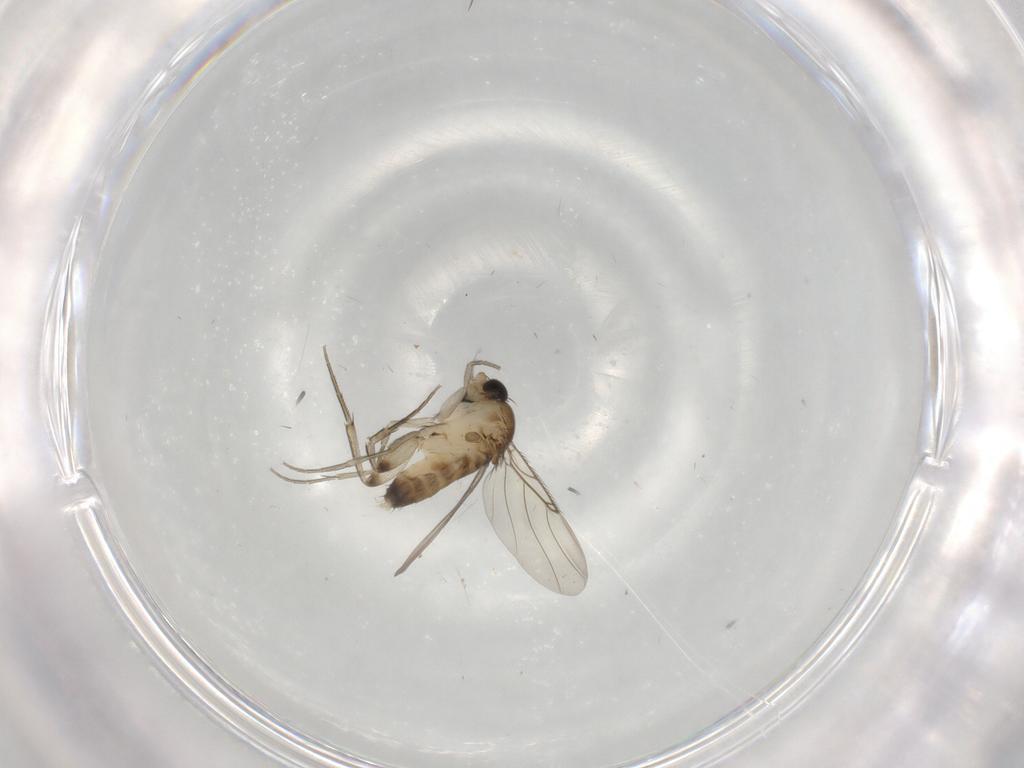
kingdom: Animalia
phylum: Arthropoda
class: Insecta
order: Diptera
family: Phoridae
